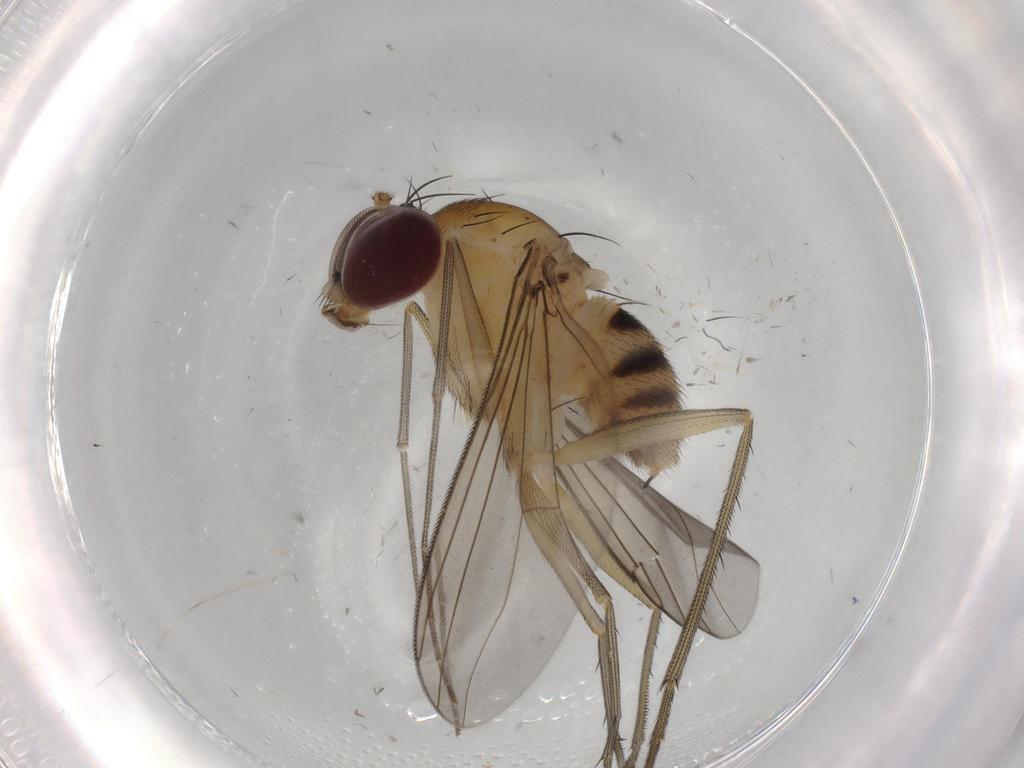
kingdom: Animalia
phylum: Arthropoda
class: Insecta
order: Diptera
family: Dolichopodidae
